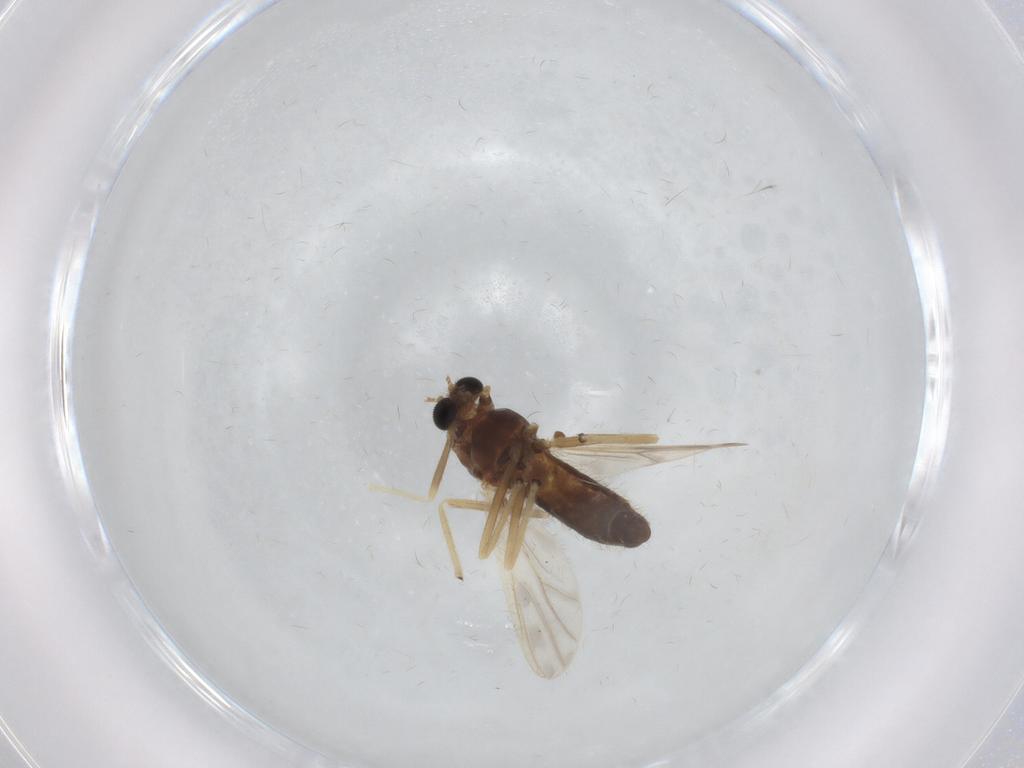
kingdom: Animalia
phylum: Arthropoda
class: Insecta
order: Diptera
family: Chironomidae
